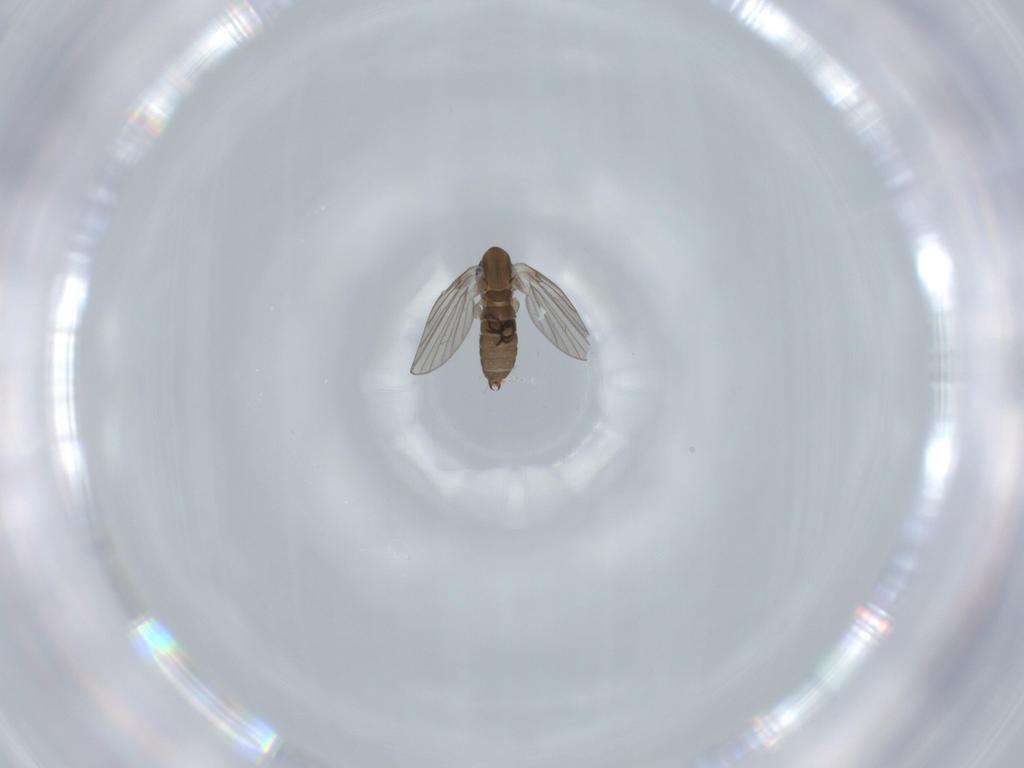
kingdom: Animalia
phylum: Arthropoda
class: Insecta
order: Diptera
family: Psychodidae
